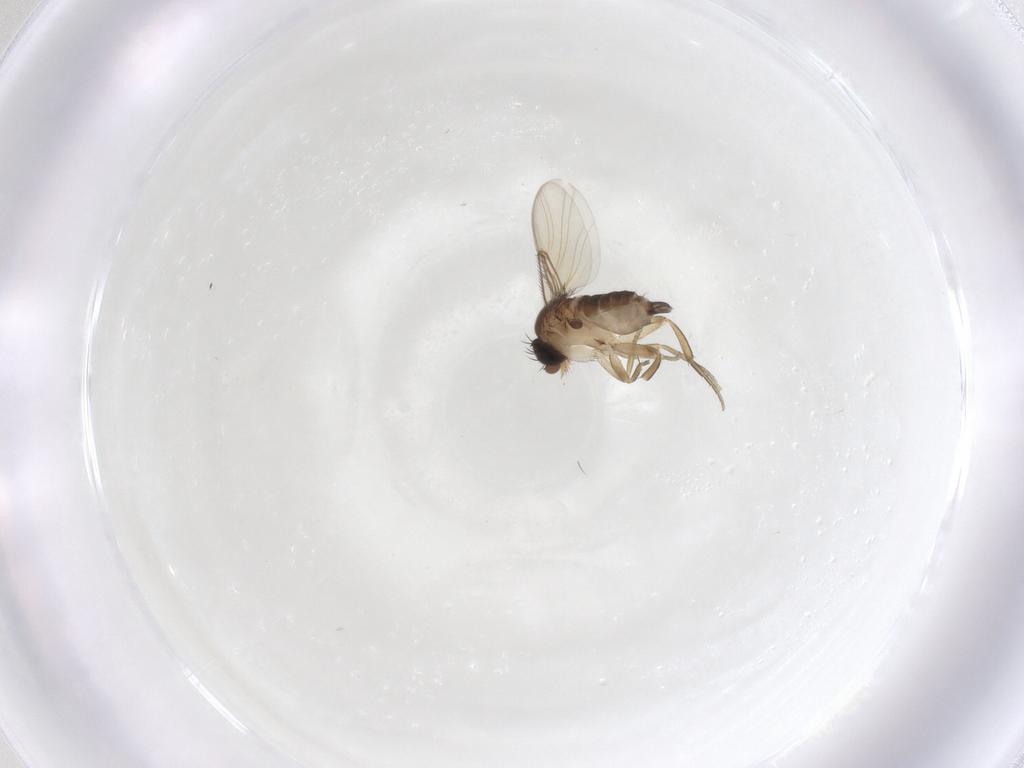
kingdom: Animalia
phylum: Arthropoda
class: Insecta
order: Diptera
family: Phoridae
